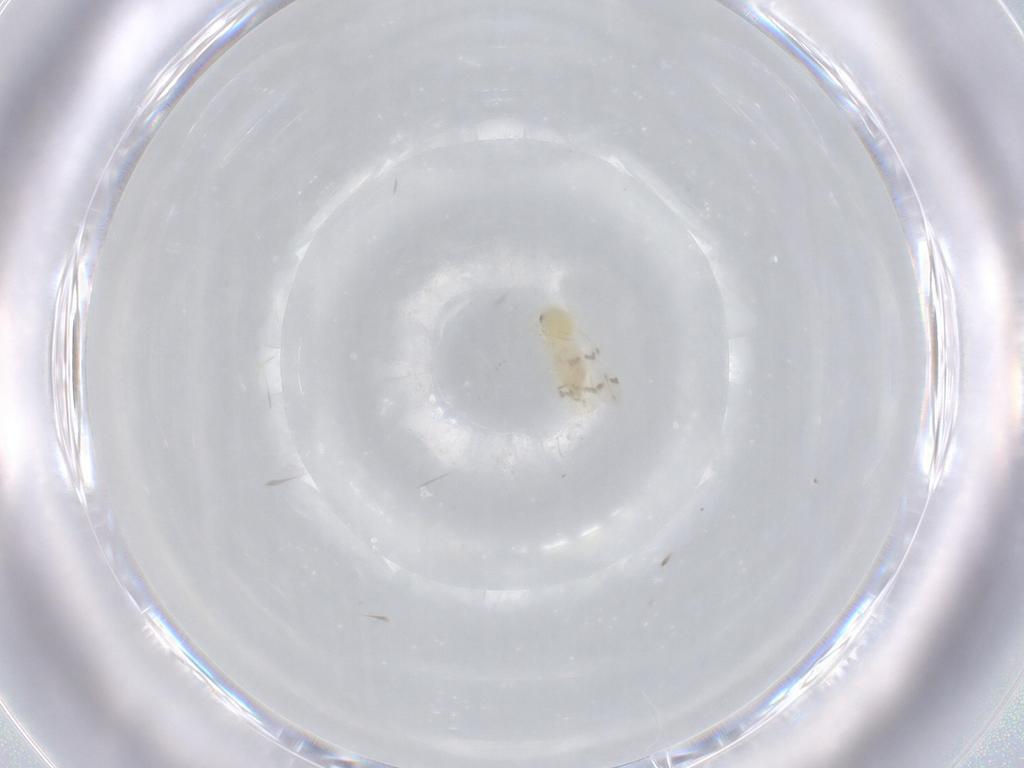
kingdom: Animalia
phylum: Arthropoda
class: Insecta
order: Hemiptera
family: Aleyrodidae
